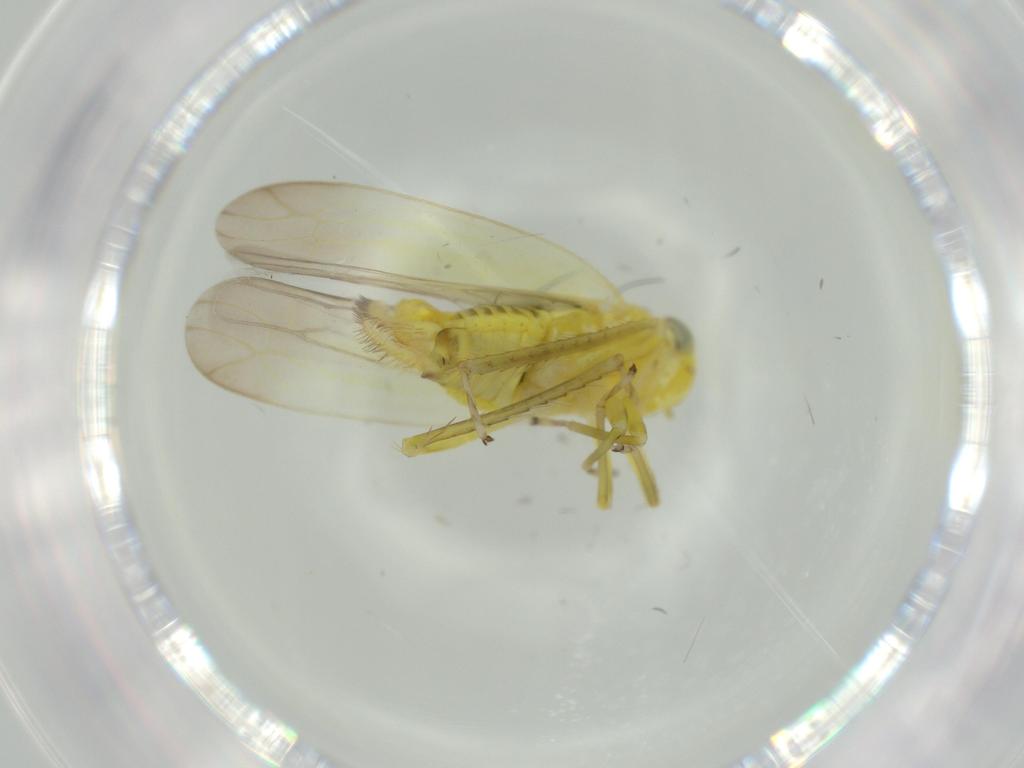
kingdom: Animalia
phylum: Arthropoda
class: Insecta
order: Hemiptera
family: Cicadellidae
